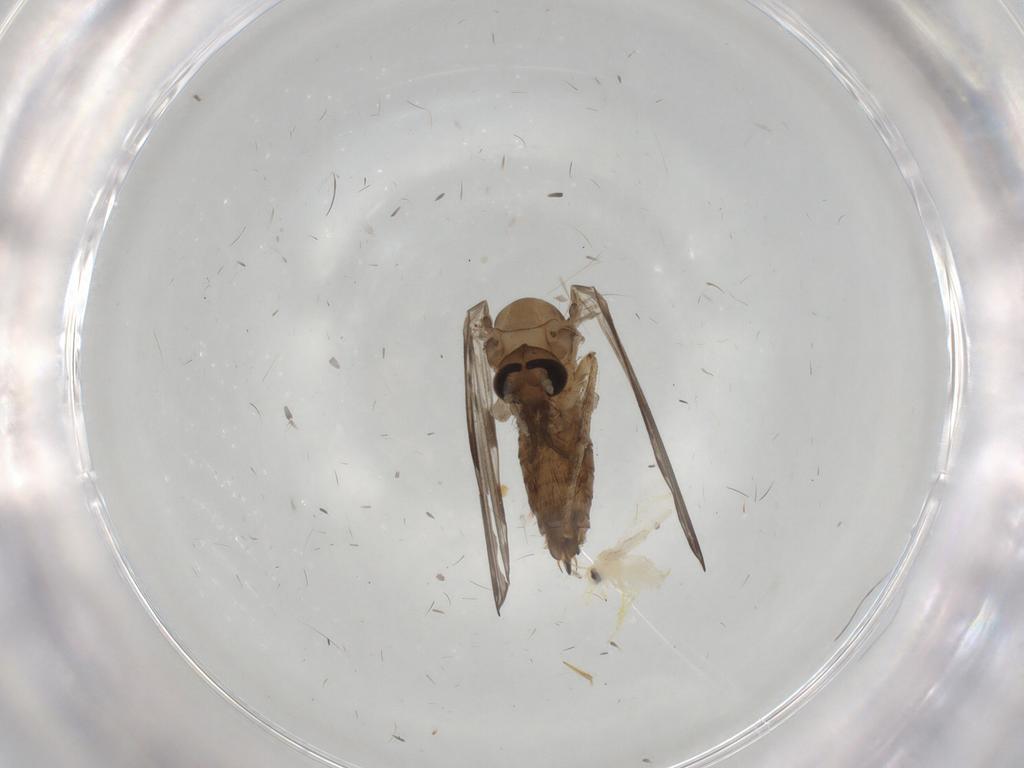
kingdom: Animalia
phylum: Arthropoda
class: Insecta
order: Diptera
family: Psychodidae
